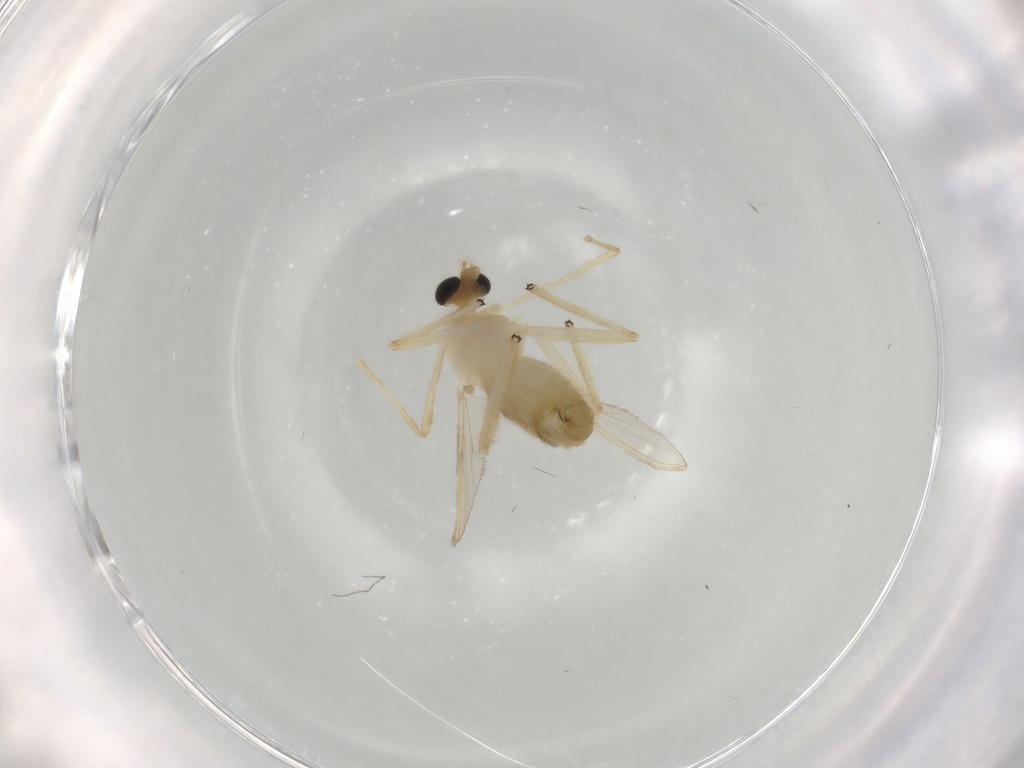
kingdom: Animalia
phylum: Arthropoda
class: Insecta
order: Diptera
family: Chironomidae
